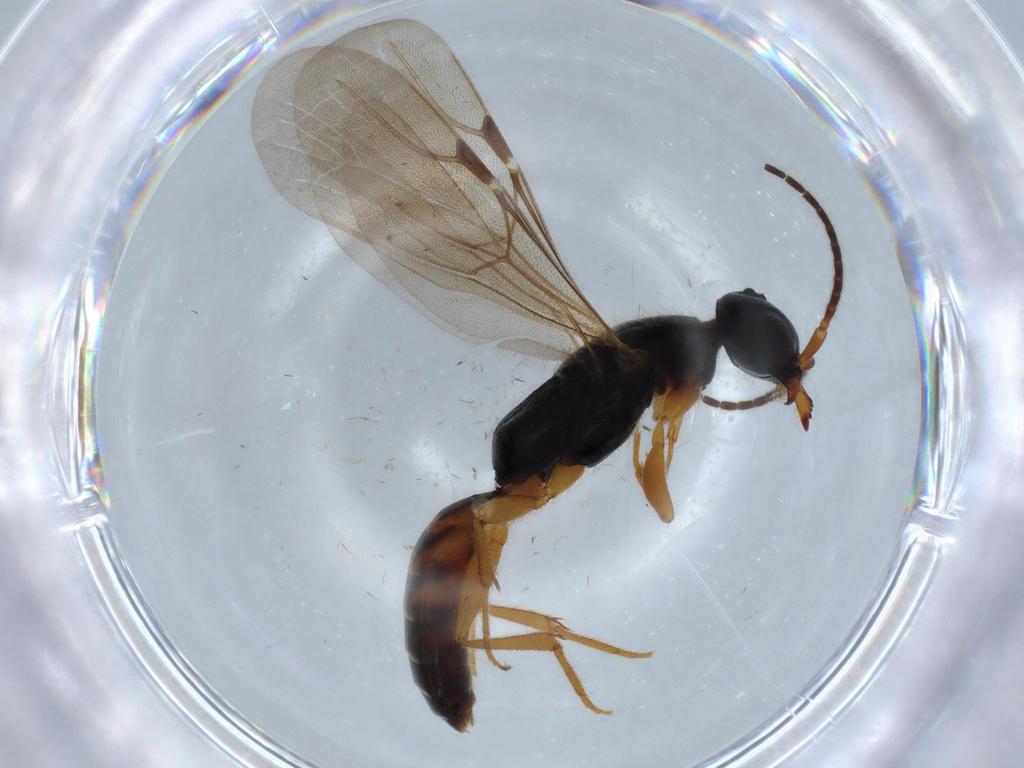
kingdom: Animalia
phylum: Arthropoda
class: Insecta
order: Hymenoptera
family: Bethylidae
